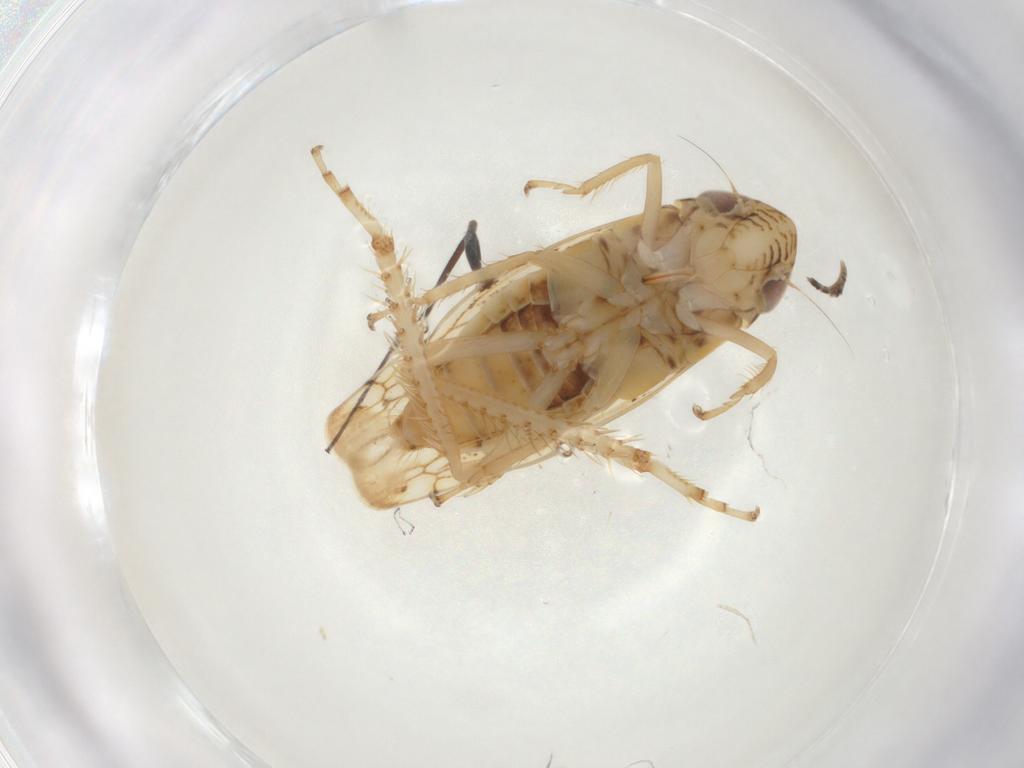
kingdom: Animalia
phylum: Arthropoda
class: Insecta
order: Hemiptera
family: Cicadellidae
